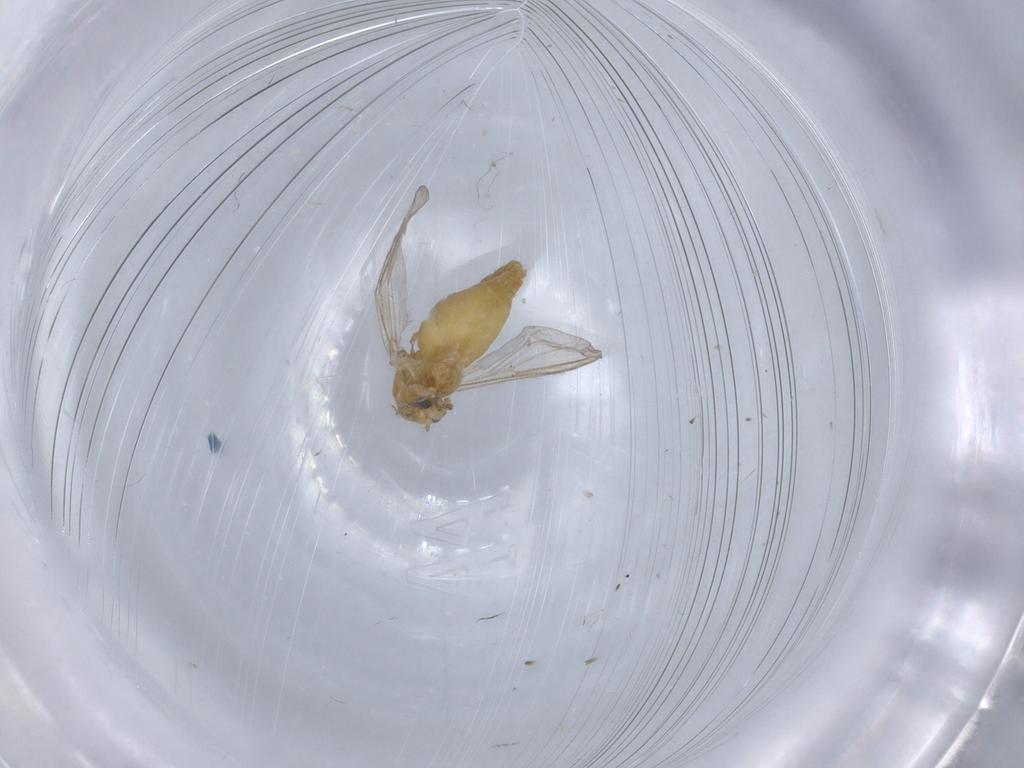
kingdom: Animalia
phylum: Arthropoda
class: Insecta
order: Diptera
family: Chironomidae
